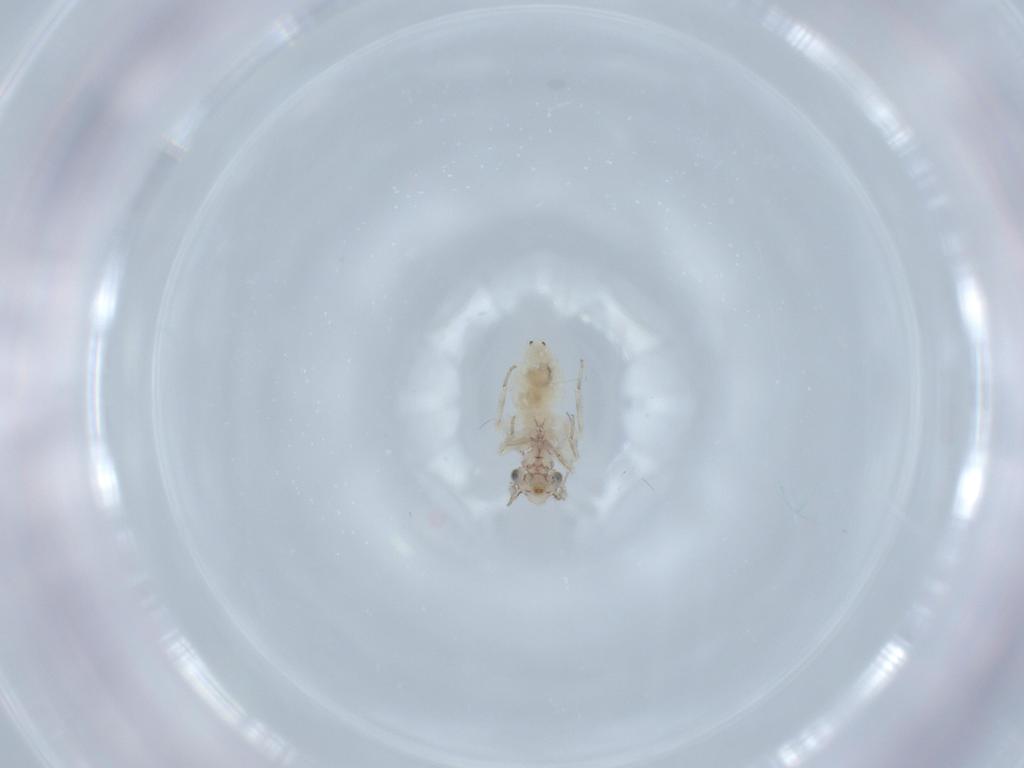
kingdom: Animalia
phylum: Arthropoda
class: Insecta
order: Psocodea
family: Lepidopsocidae
